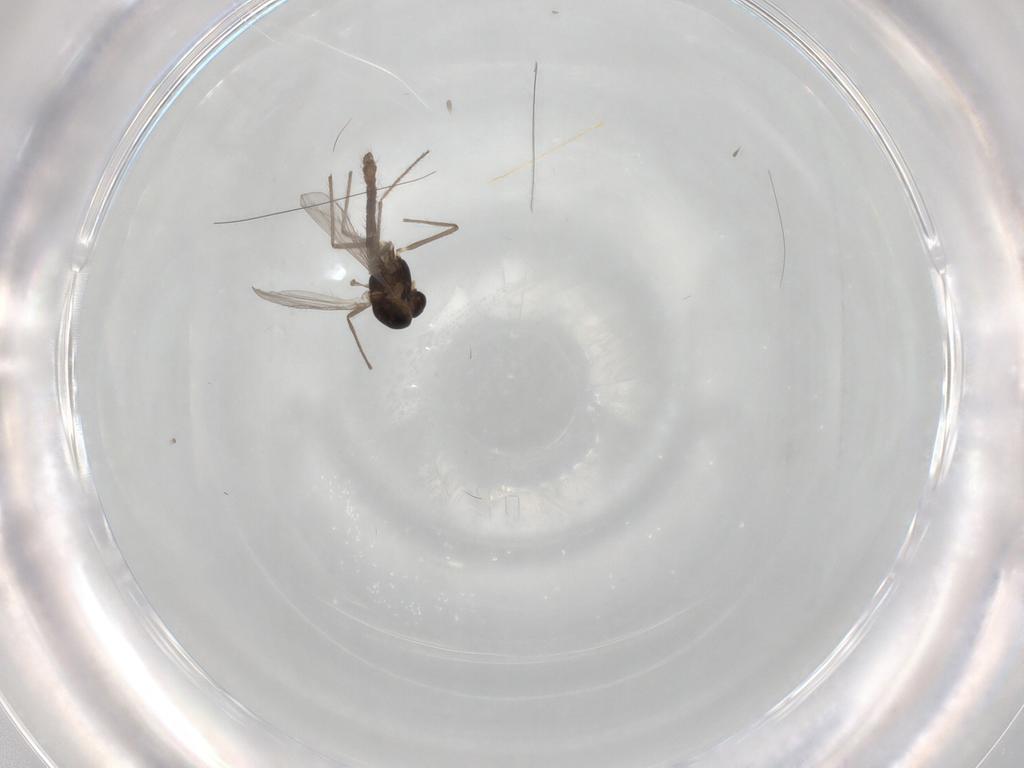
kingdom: Animalia
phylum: Arthropoda
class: Insecta
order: Diptera
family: Chironomidae
